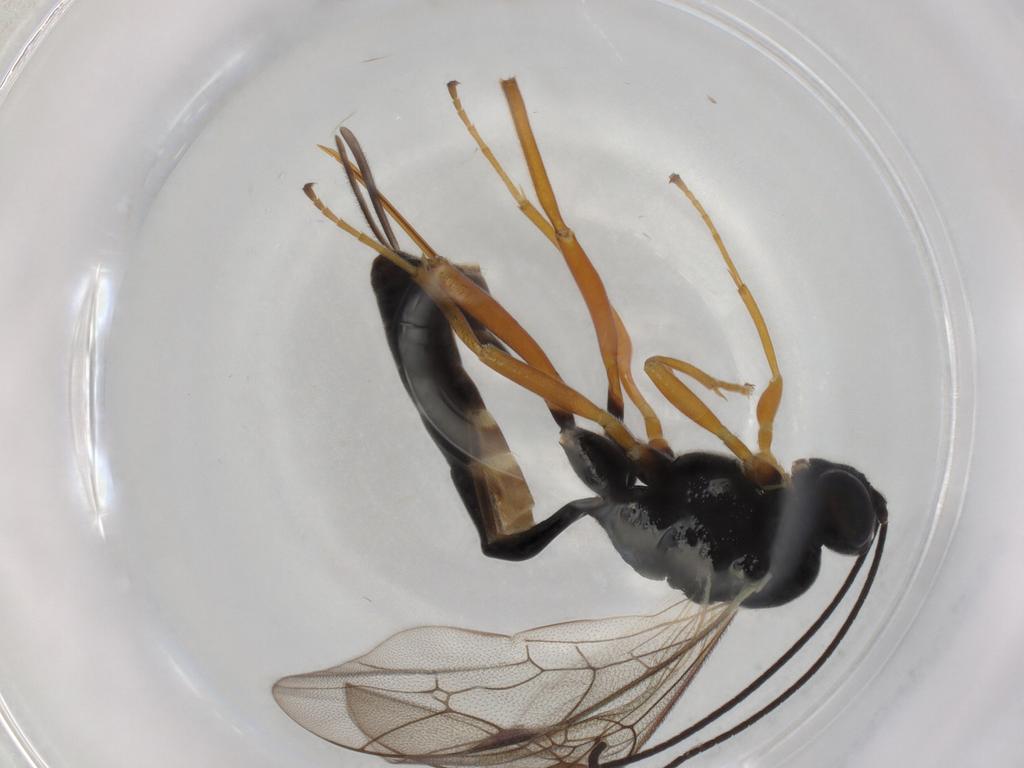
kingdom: Animalia
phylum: Arthropoda
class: Insecta
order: Hymenoptera
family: Ichneumonidae
